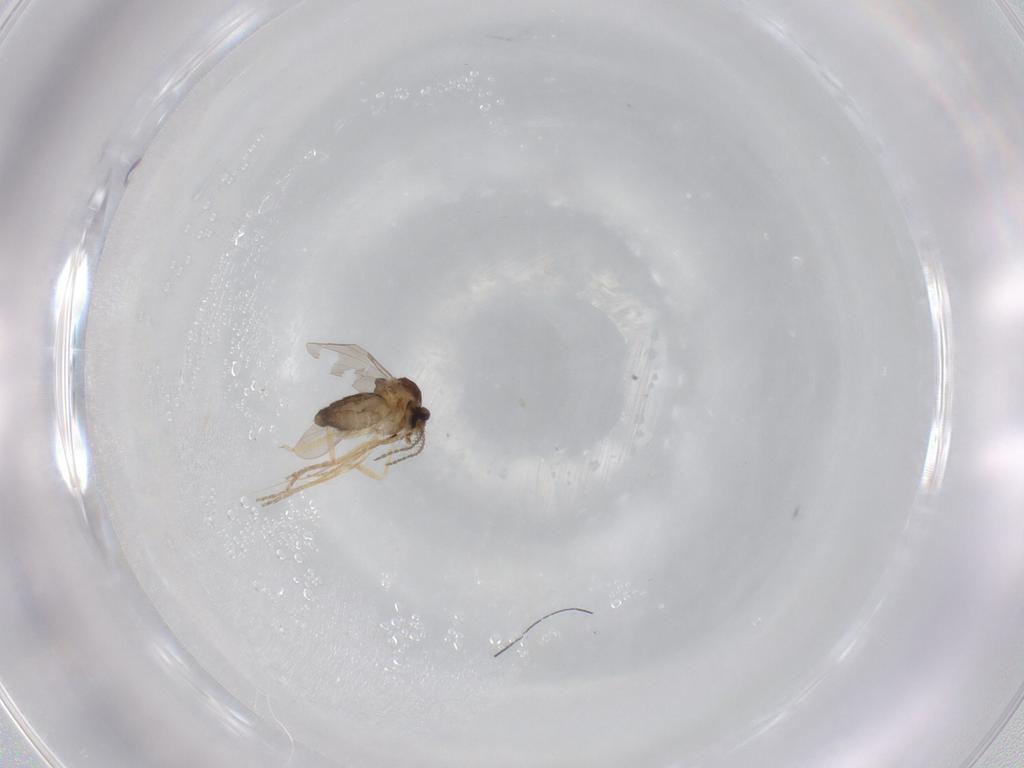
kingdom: Animalia
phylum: Arthropoda
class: Insecta
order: Diptera
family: Ceratopogonidae
